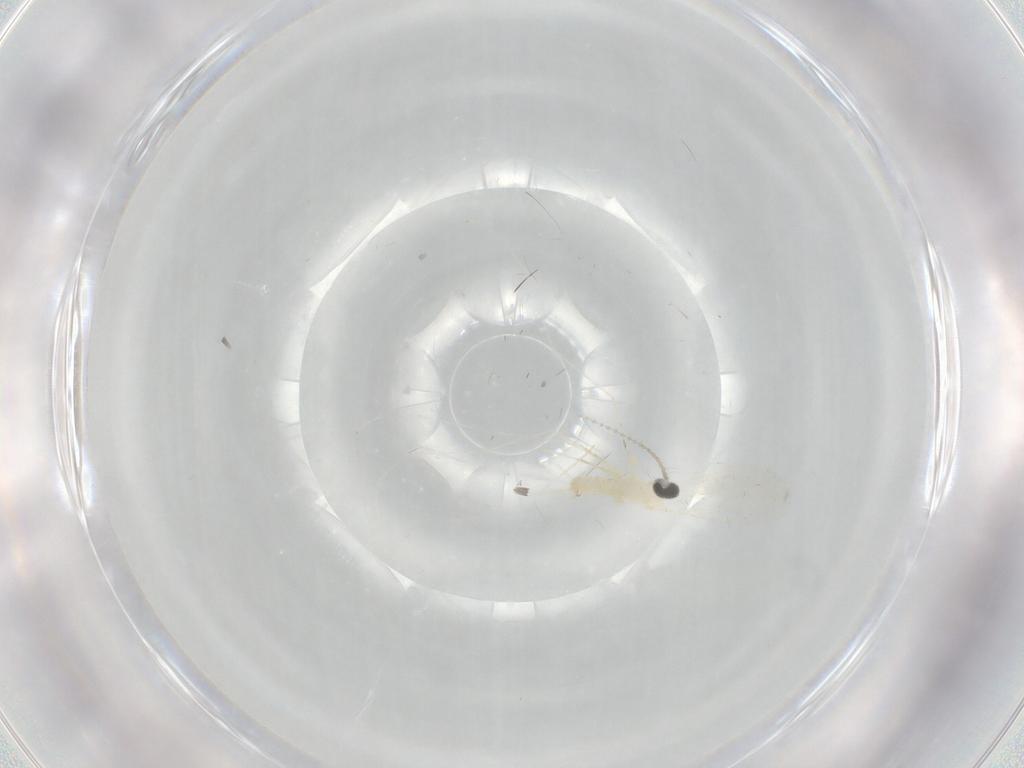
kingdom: Animalia
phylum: Arthropoda
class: Insecta
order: Diptera
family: Cecidomyiidae
